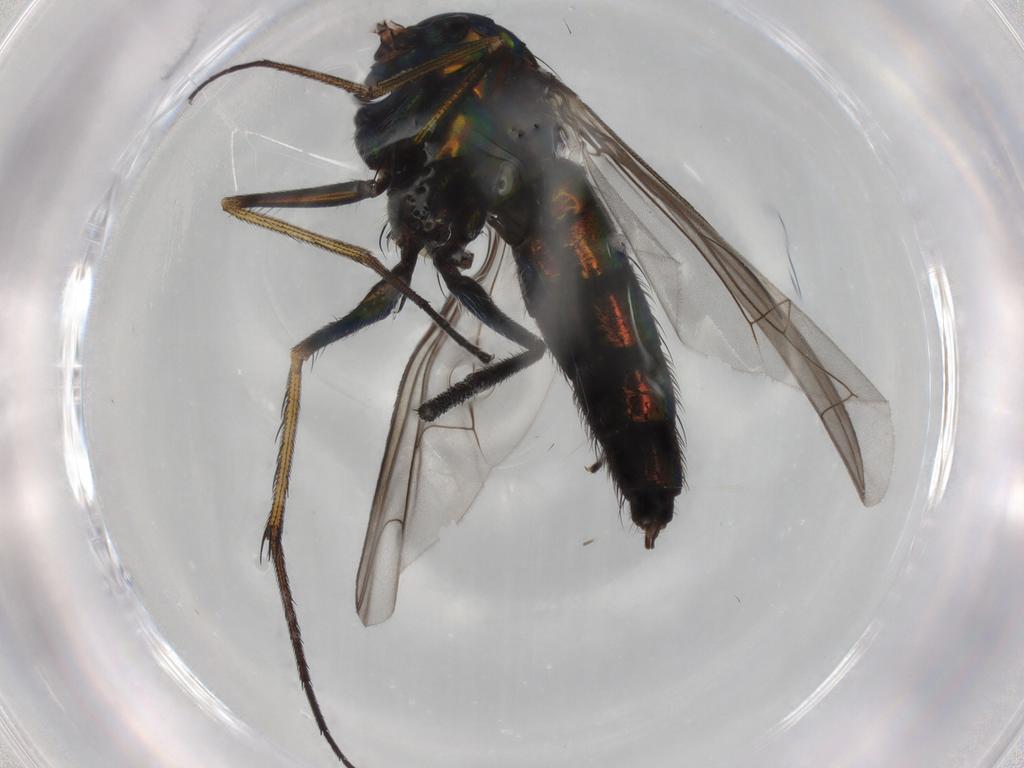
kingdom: Animalia
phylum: Arthropoda
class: Insecta
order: Diptera
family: Dolichopodidae
